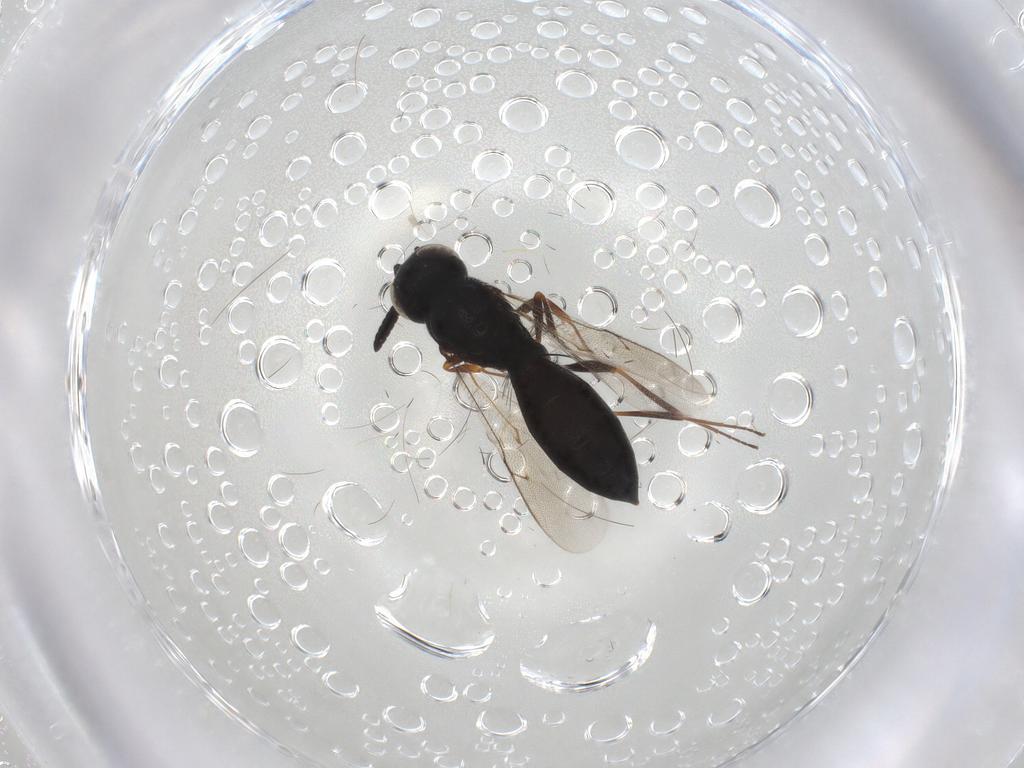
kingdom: Animalia
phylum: Arthropoda
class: Insecta
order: Hymenoptera
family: Scelionidae
